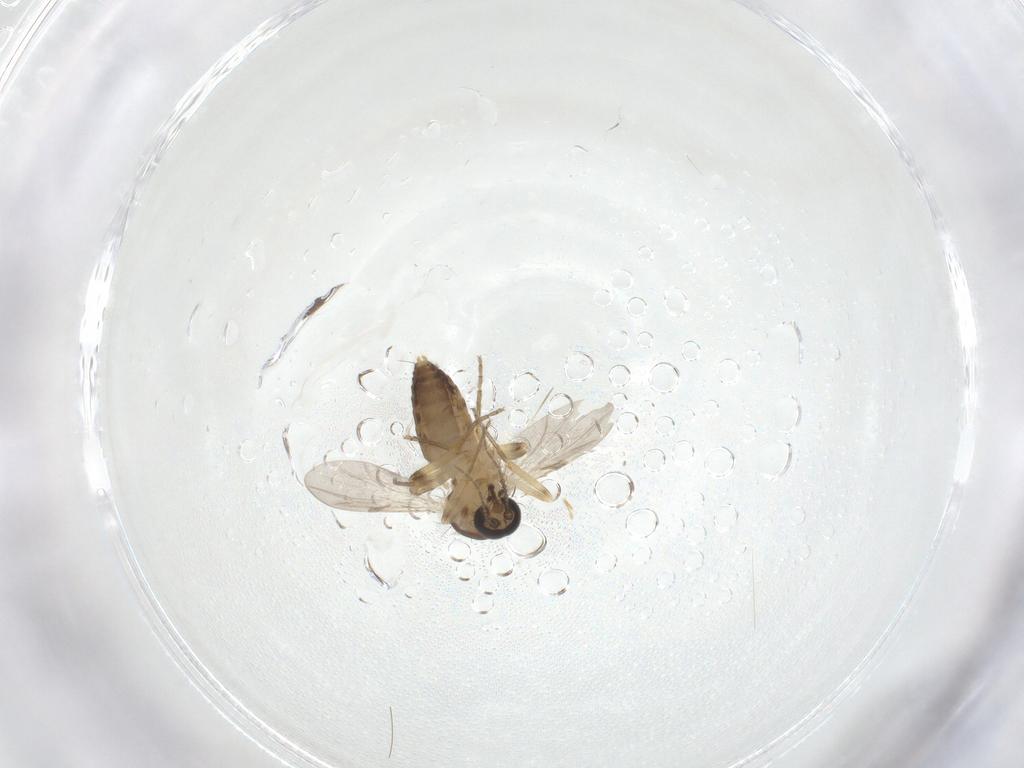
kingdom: Animalia
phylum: Arthropoda
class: Insecta
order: Diptera
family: Ceratopogonidae
